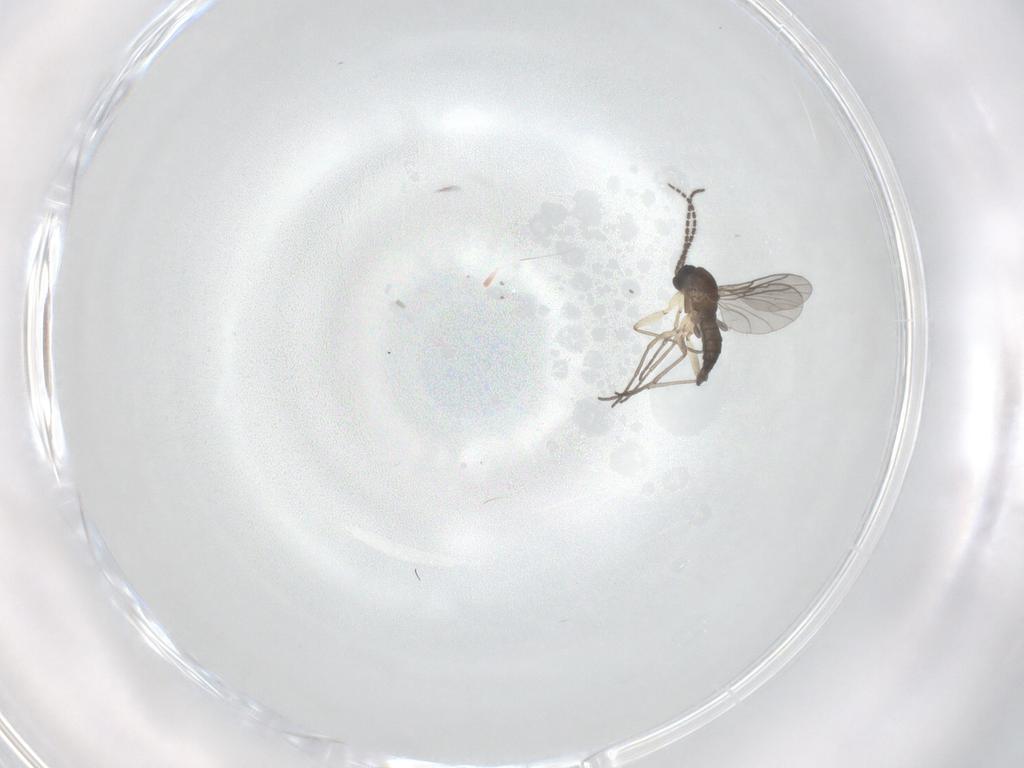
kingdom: Animalia
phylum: Arthropoda
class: Insecta
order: Diptera
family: Sciaridae
